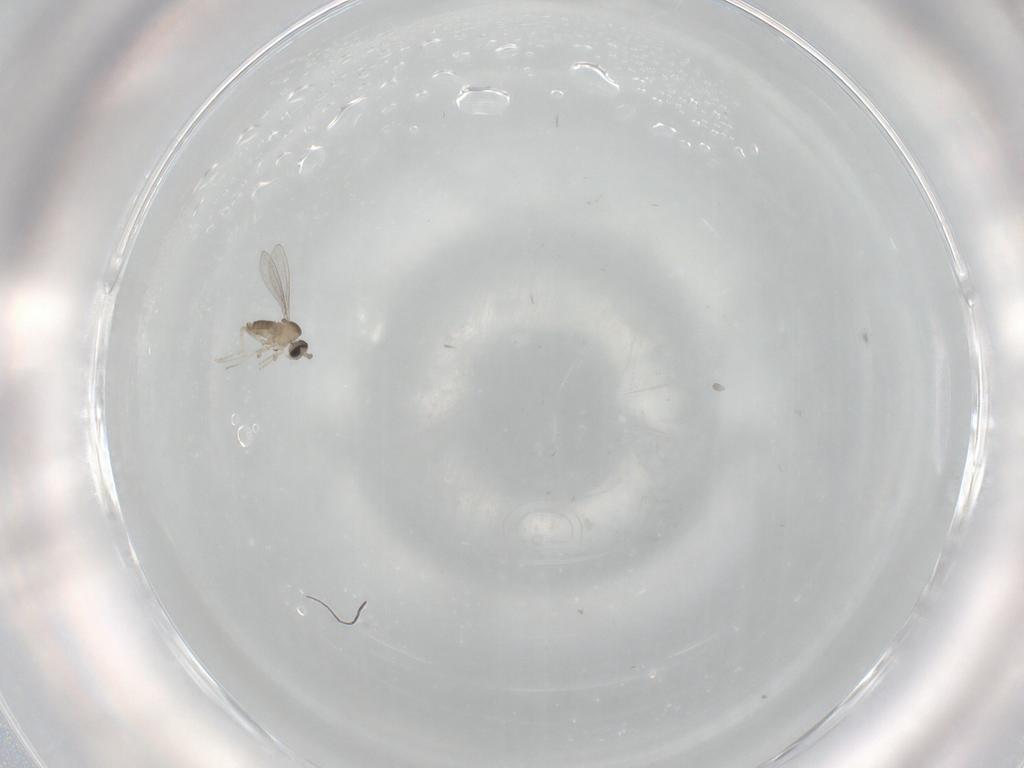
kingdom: Animalia
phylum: Arthropoda
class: Insecta
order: Diptera
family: Cecidomyiidae
